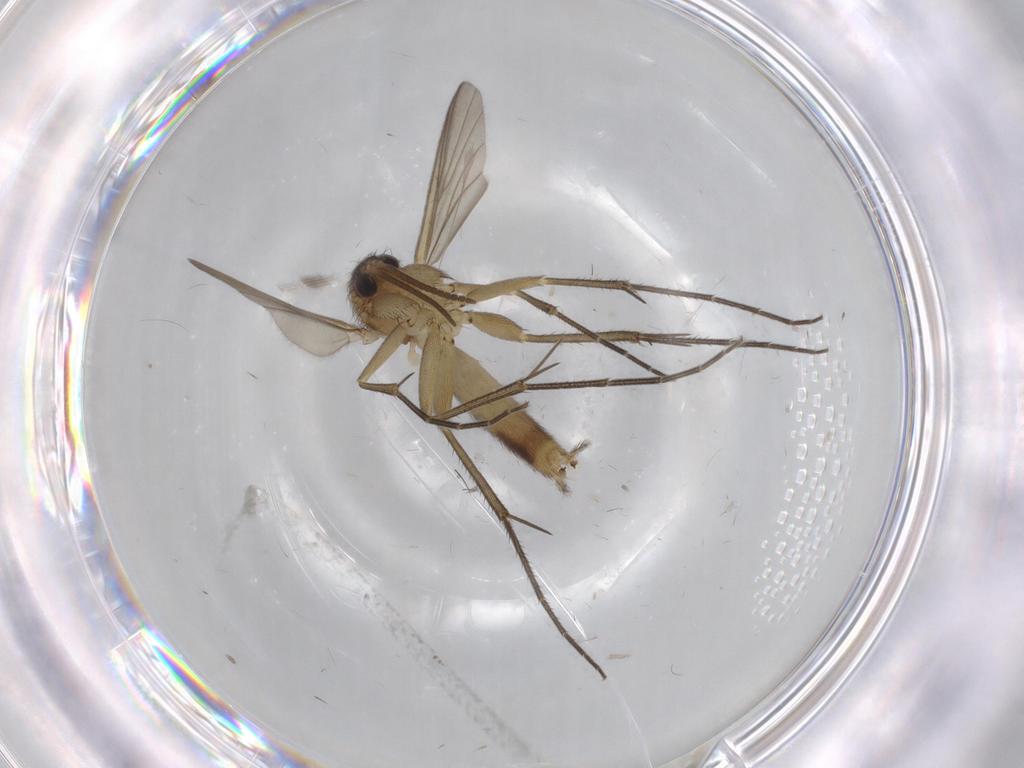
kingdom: Animalia
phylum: Arthropoda
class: Insecta
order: Diptera
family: Mycetophilidae
